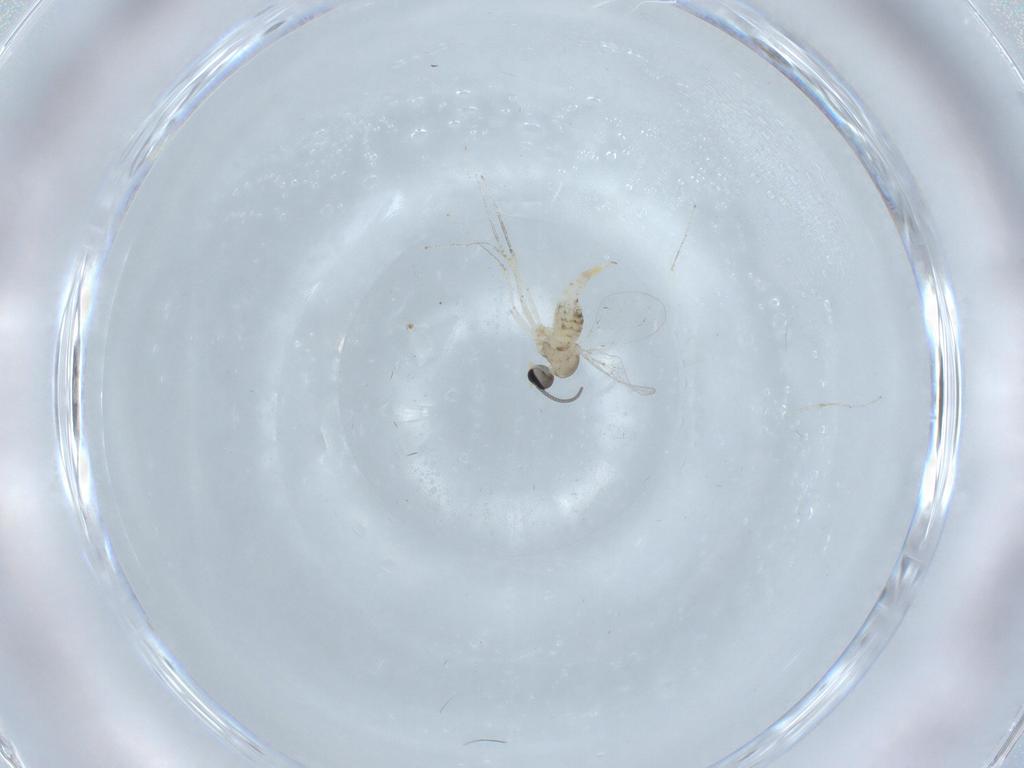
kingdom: Animalia
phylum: Arthropoda
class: Insecta
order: Diptera
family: Cecidomyiidae
